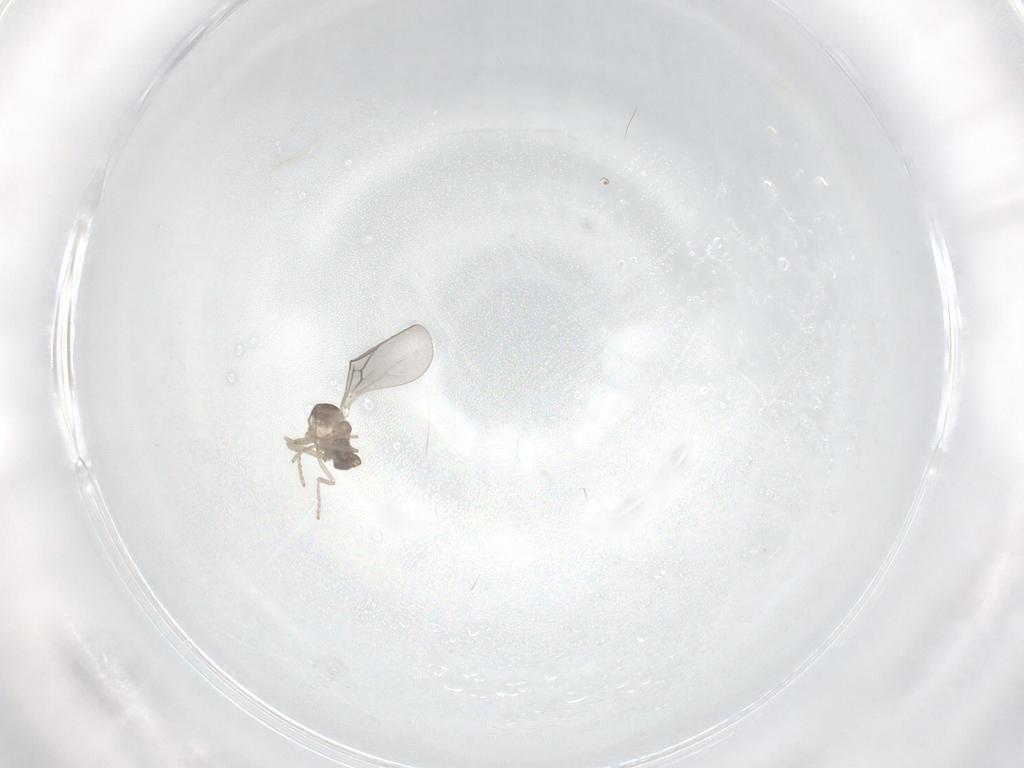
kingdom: Animalia
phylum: Arthropoda
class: Insecta
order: Diptera
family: Cecidomyiidae
